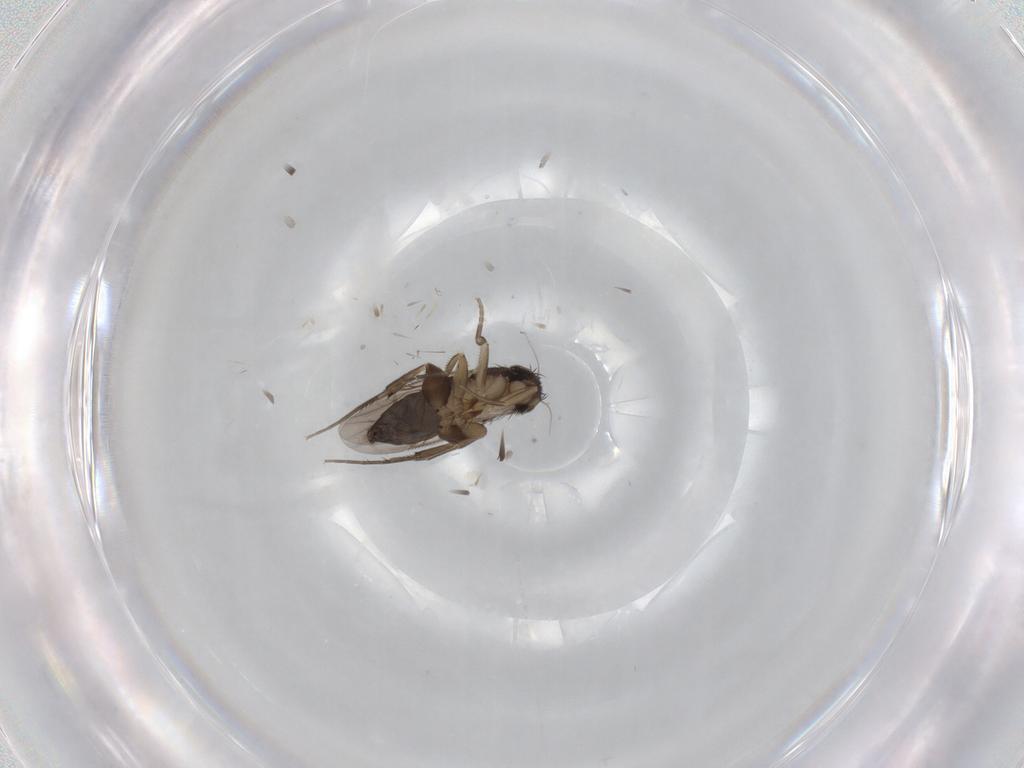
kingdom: Animalia
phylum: Arthropoda
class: Insecta
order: Diptera
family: Phoridae
